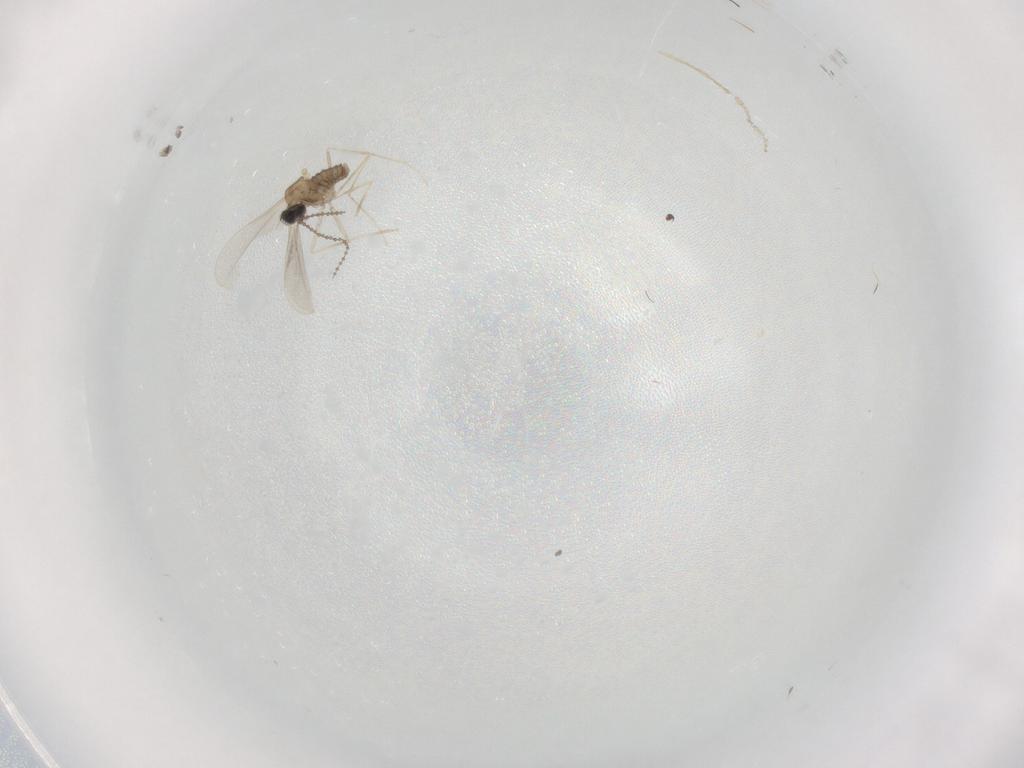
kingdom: Animalia
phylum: Arthropoda
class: Insecta
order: Diptera
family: Cecidomyiidae
